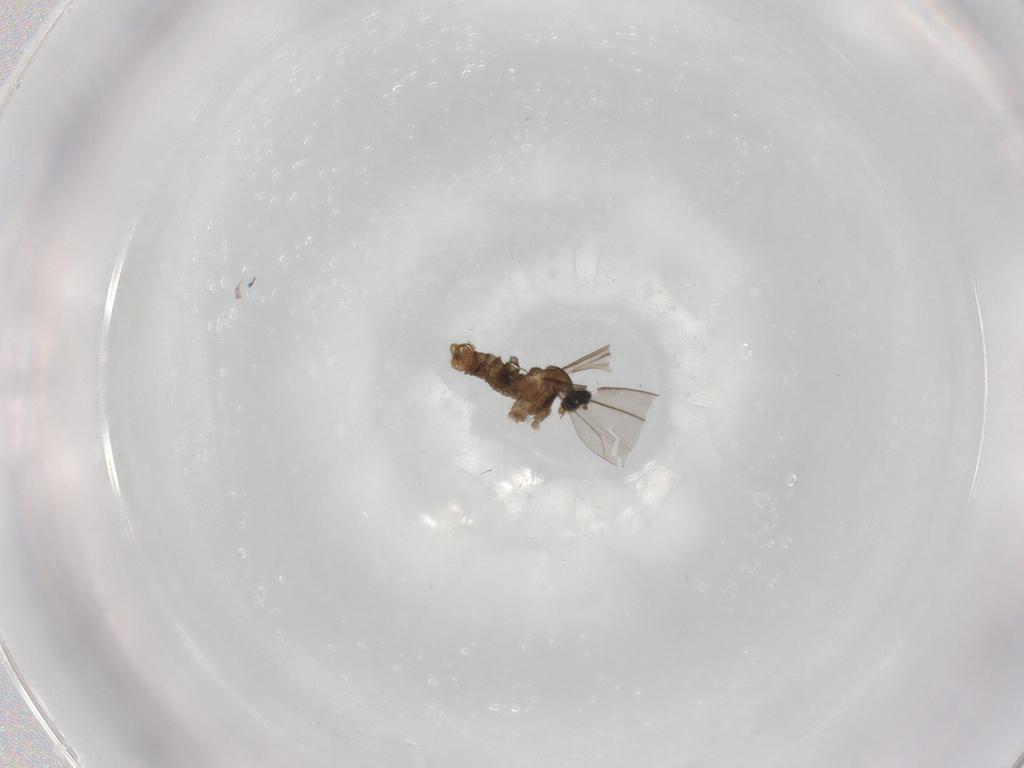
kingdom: Animalia
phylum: Arthropoda
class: Insecta
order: Diptera
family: Cecidomyiidae
